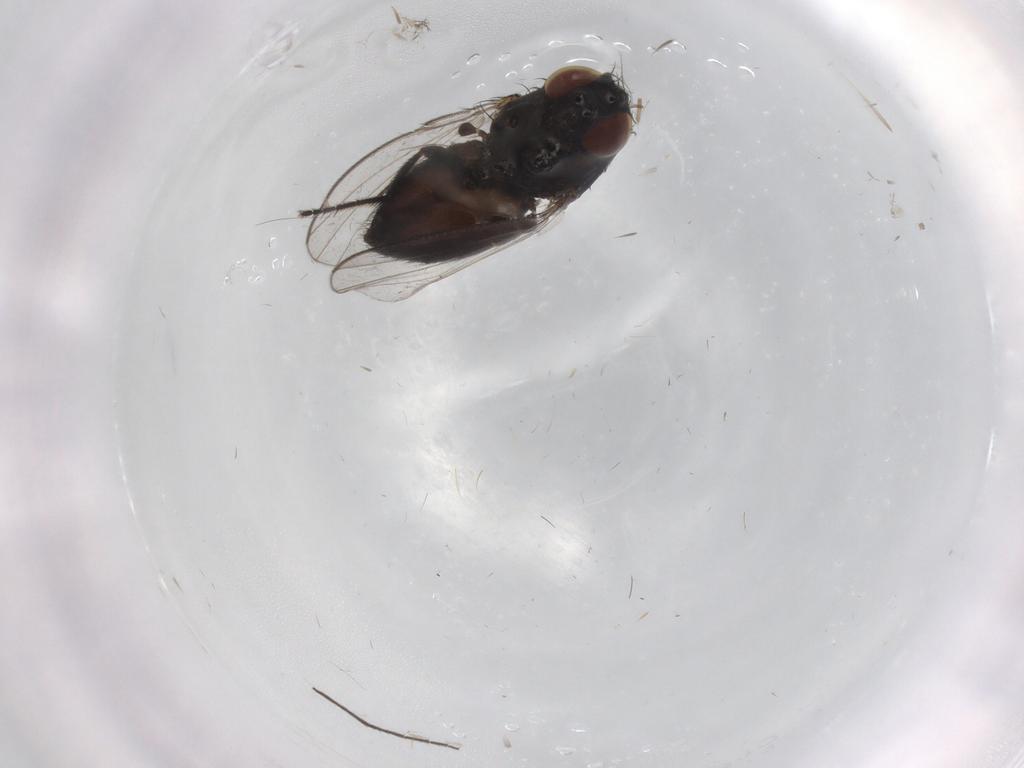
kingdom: Animalia
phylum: Arthropoda
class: Insecta
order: Diptera
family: Milichiidae
